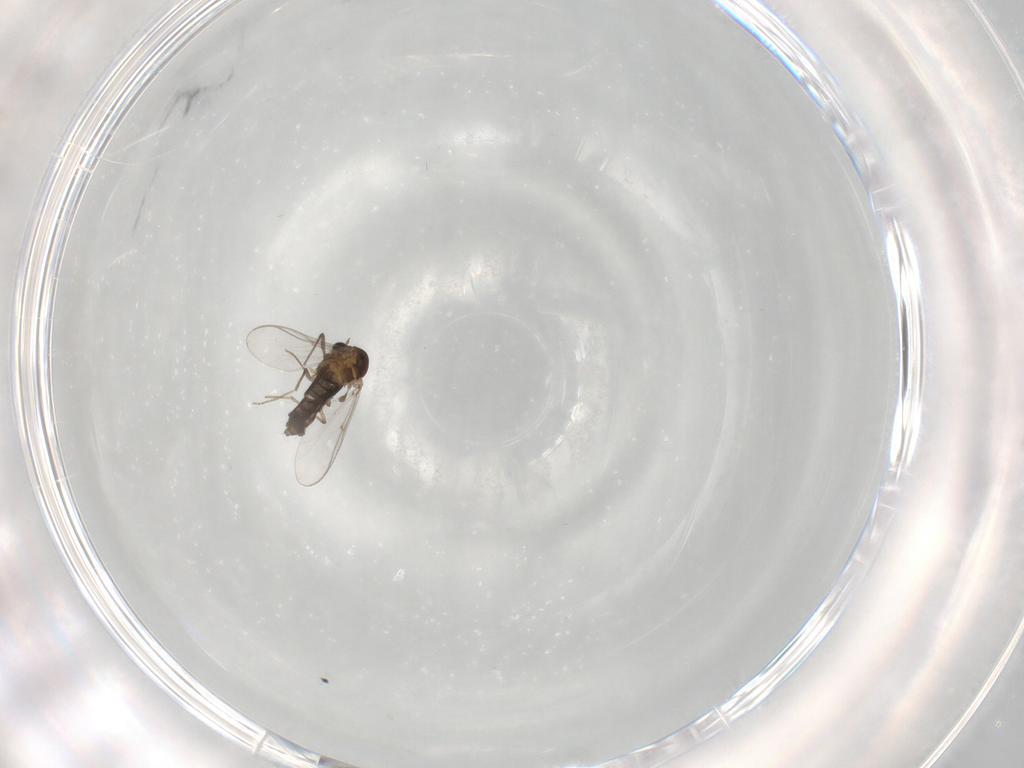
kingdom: Animalia
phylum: Arthropoda
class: Insecta
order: Diptera
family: Chironomidae
